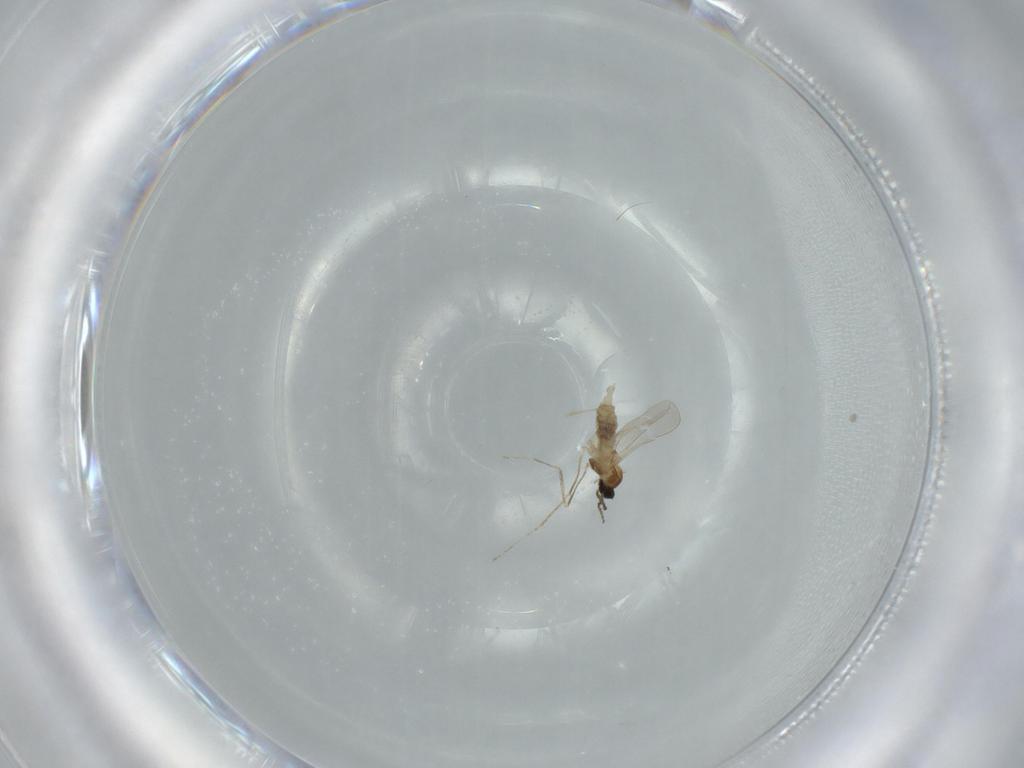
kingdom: Animalia
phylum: Arthropoda
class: Insecta
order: Diptera
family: Cecidomyiidae
